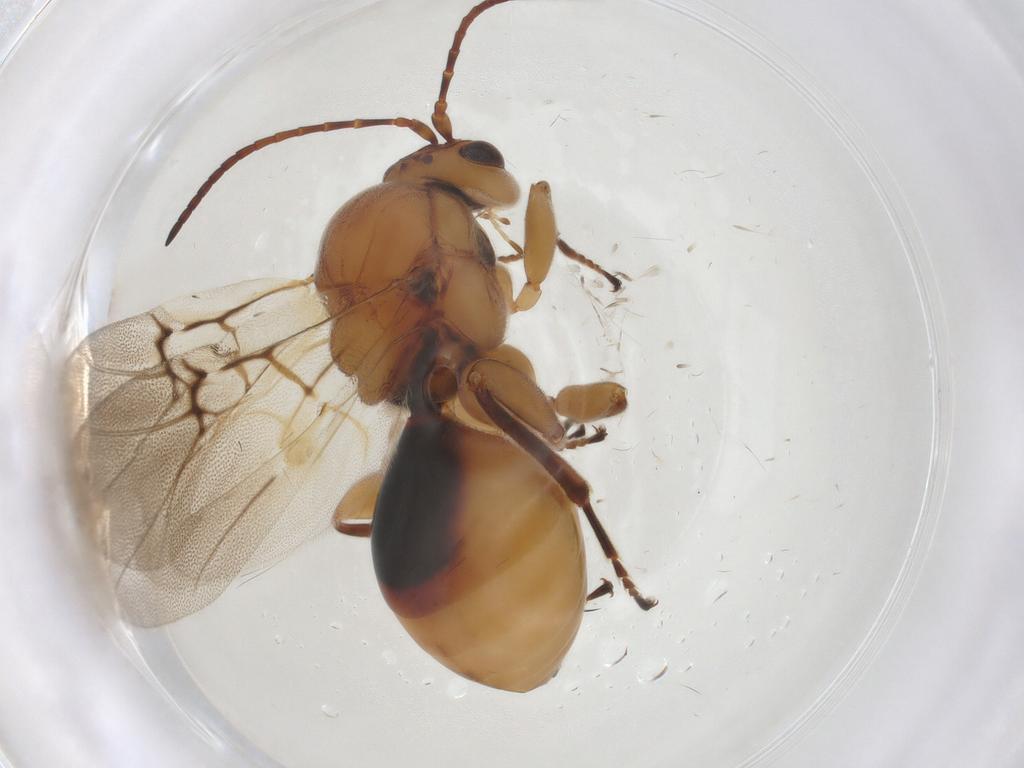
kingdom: Animalia
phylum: Arthropoda
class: Insecta
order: Hymenoptera
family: Cynipidae
